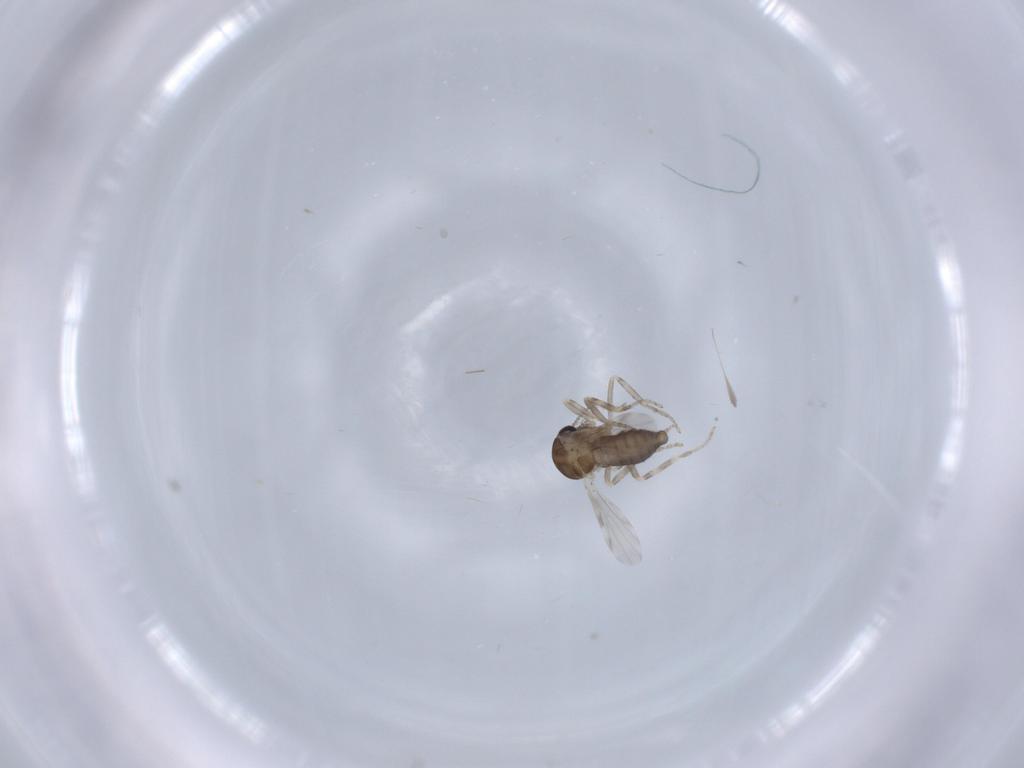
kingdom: Animalia
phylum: Arthropoda
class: Insecta
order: Diptera
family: Ceratopogonidae
